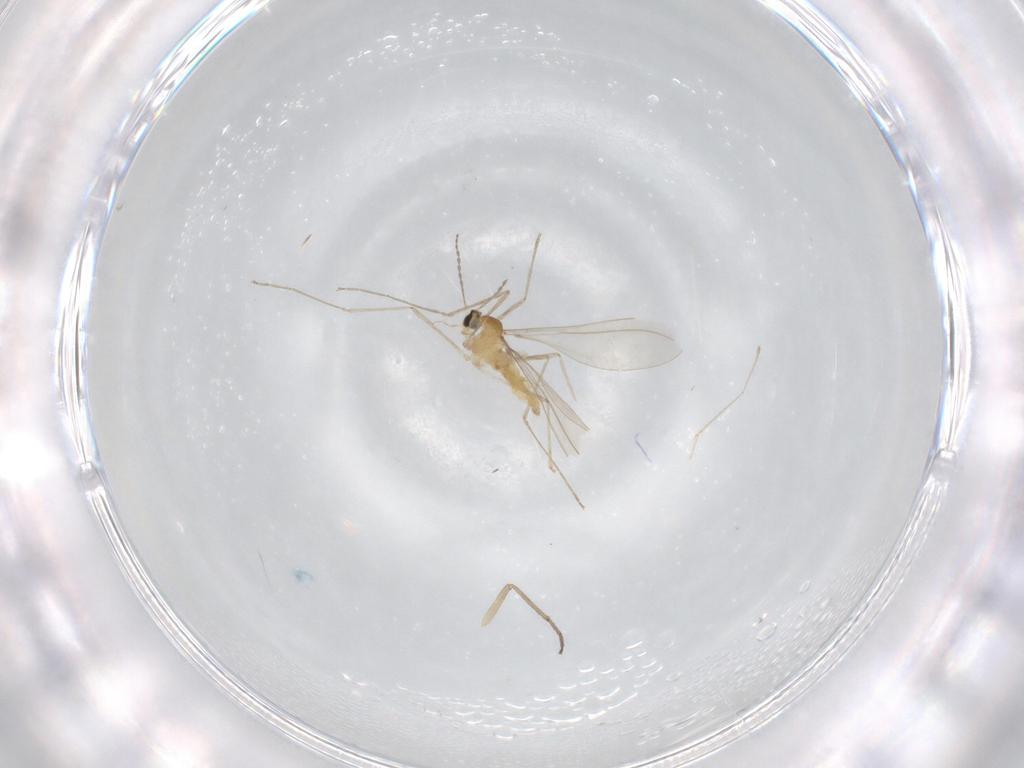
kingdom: Animalia
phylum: Arthropoda
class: Insecta
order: Diptera
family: Cecidomyiidae
